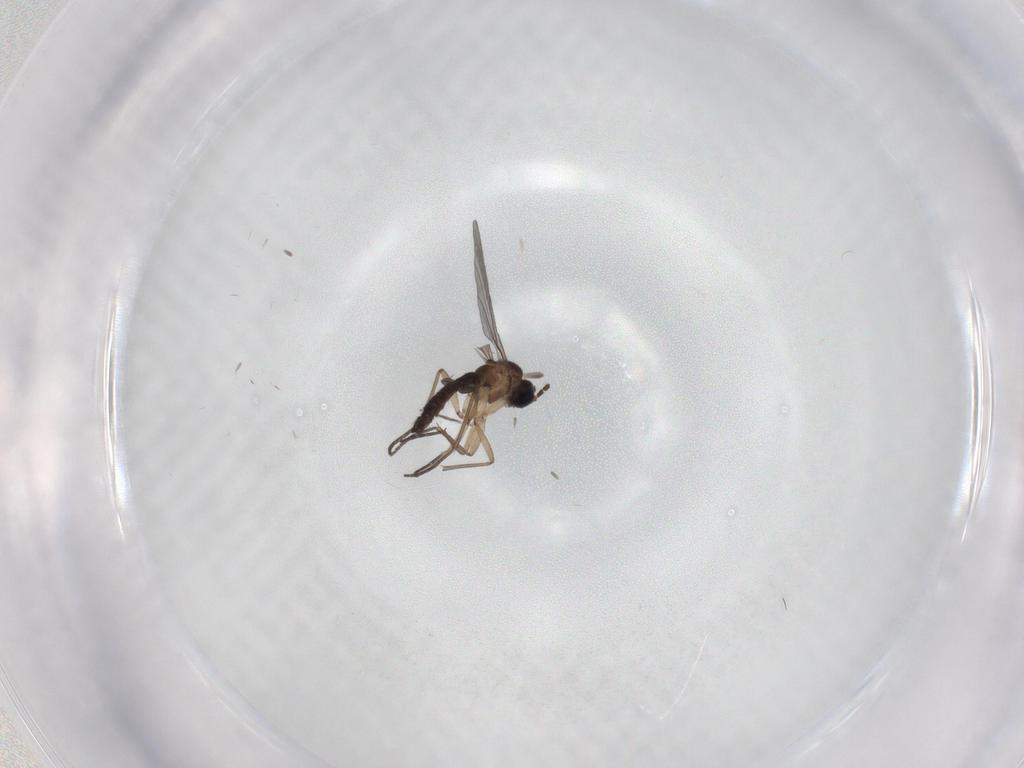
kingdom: Animalia
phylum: Arthropoda
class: Insecta
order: Diptera
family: Sciaridae
